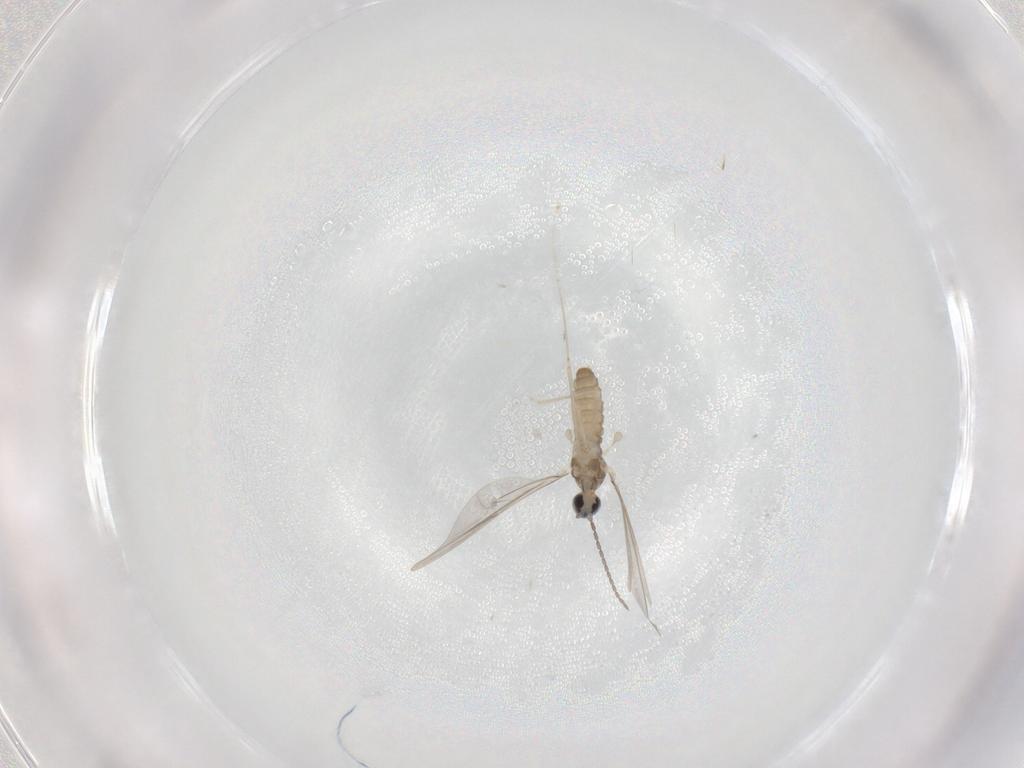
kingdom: Animalia
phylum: Arthropoda
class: Insecta
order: Diptera
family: Cecidomyiidae
